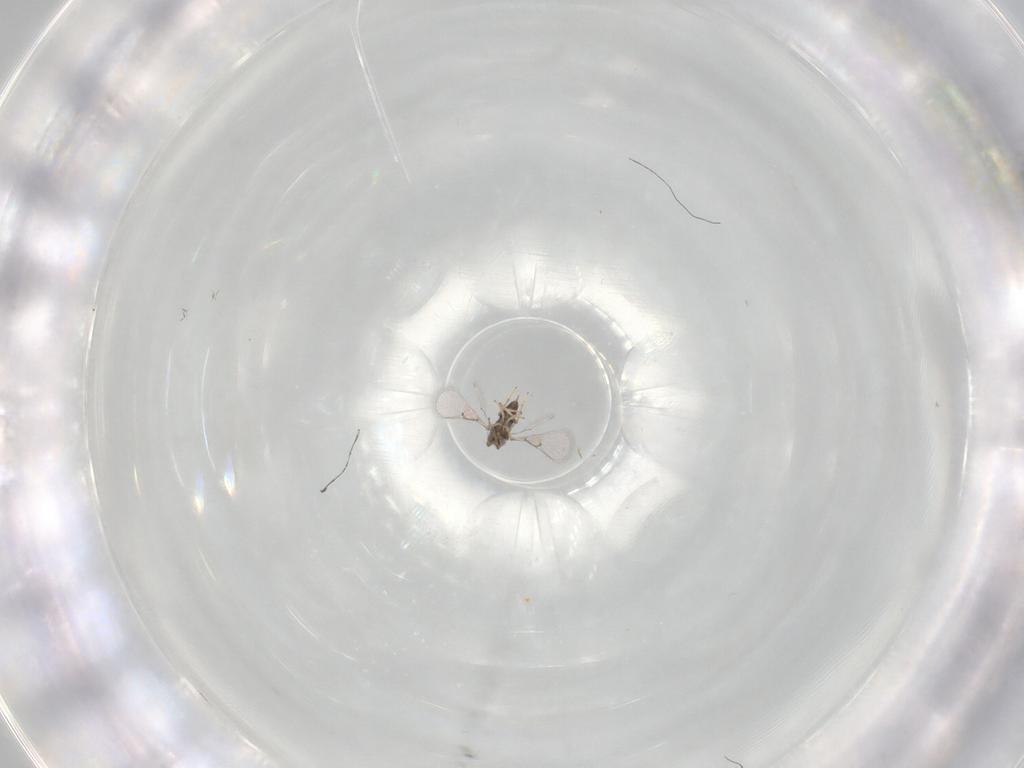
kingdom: Animalia
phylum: Arthropoda
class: Insecta
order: Hymenoptera
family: Trichogrammatidae
